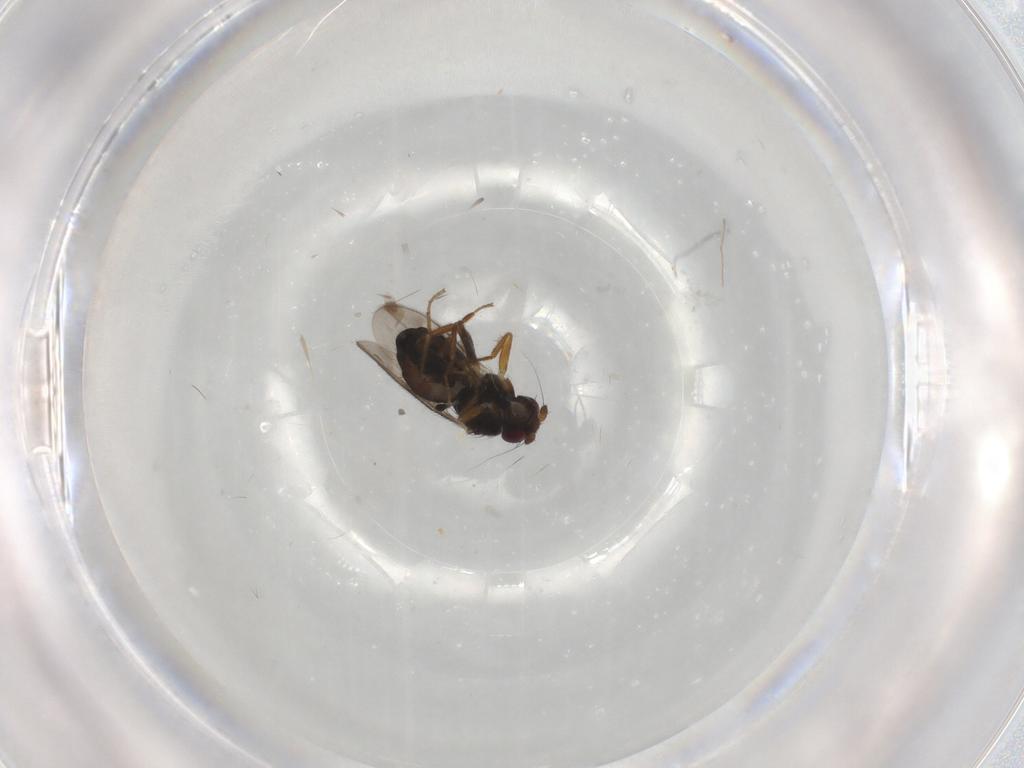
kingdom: Animalia
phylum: Arthropoda
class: Insecta
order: Diptera
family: Sphaeroceridae
